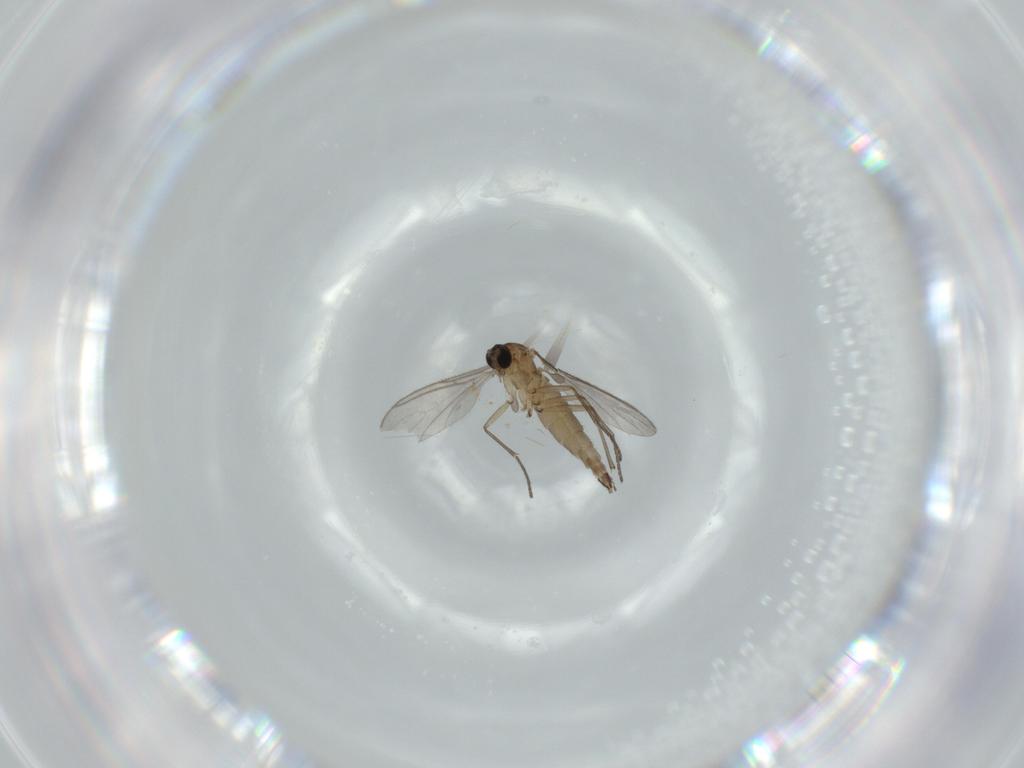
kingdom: Animalia
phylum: Arthropoda
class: Insecta
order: Diptera
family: Sciaridae
